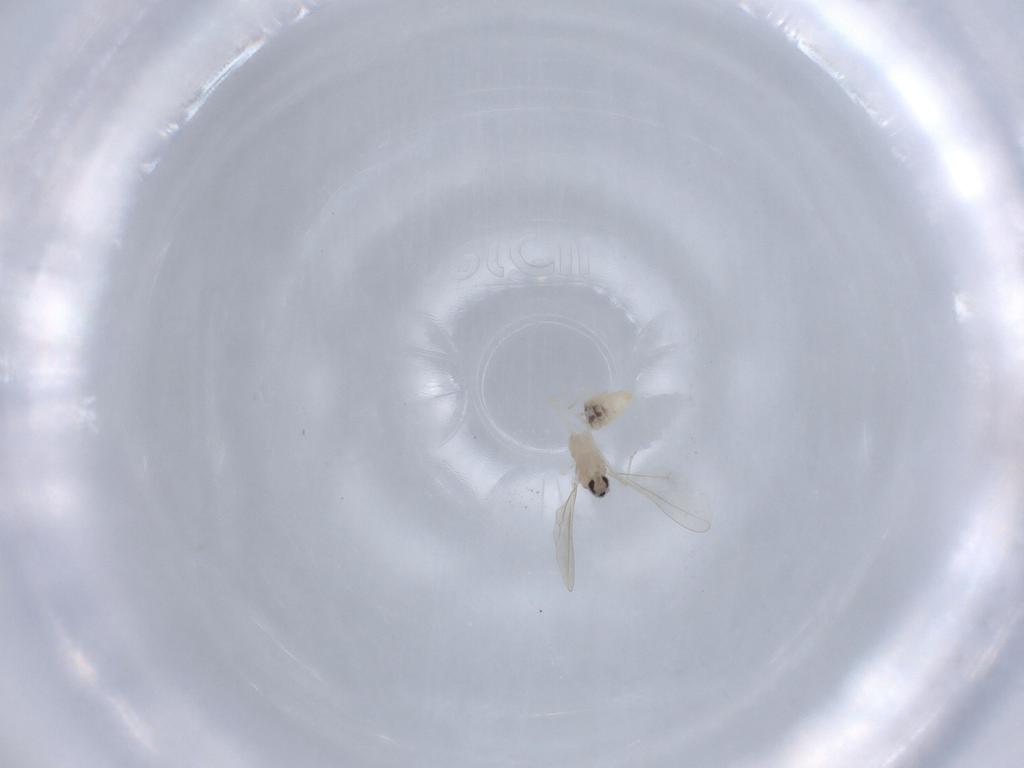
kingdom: Animalia
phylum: Arthropoda
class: Insecta
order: Diptera
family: Cecidomyiidae
